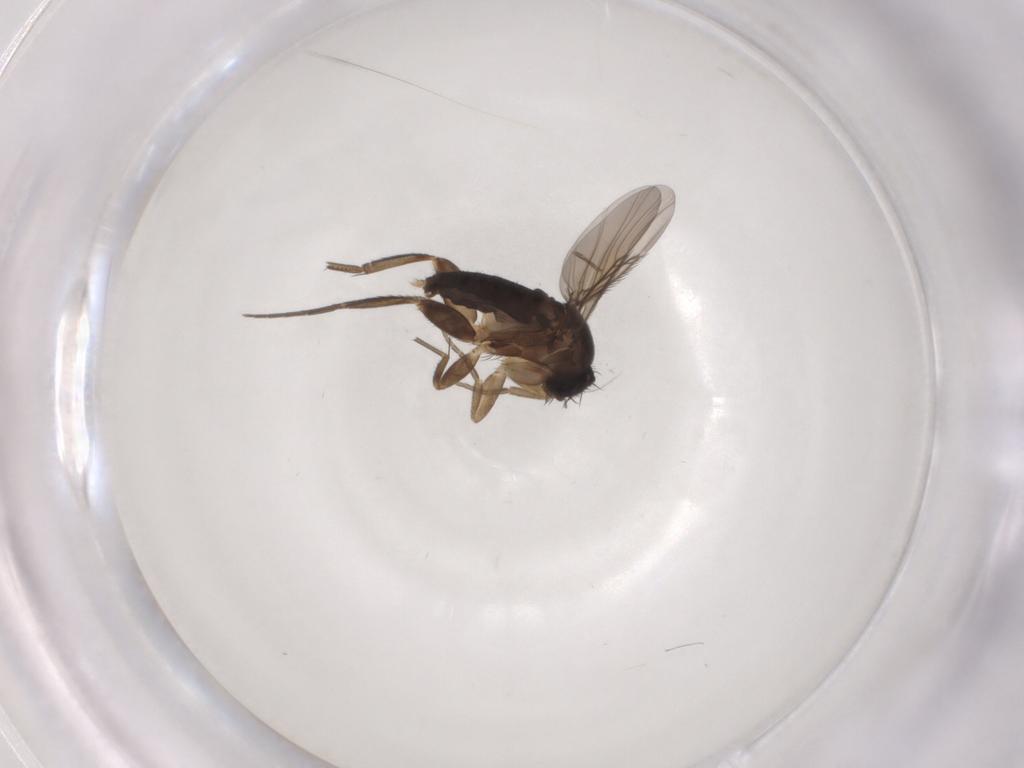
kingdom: Animalia
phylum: Arthropoda
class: Insecta
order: Diptera
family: Phoridae
